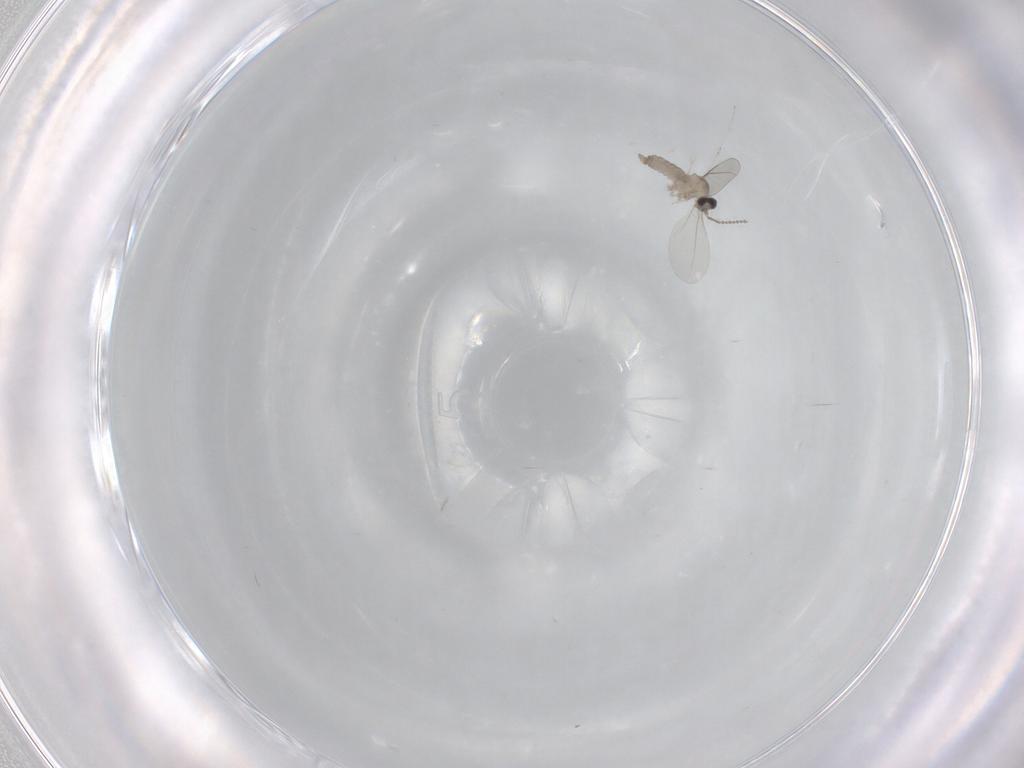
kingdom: Animalia
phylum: Arthropoda
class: Insecta
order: Diptera
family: Cecidomyiidae
